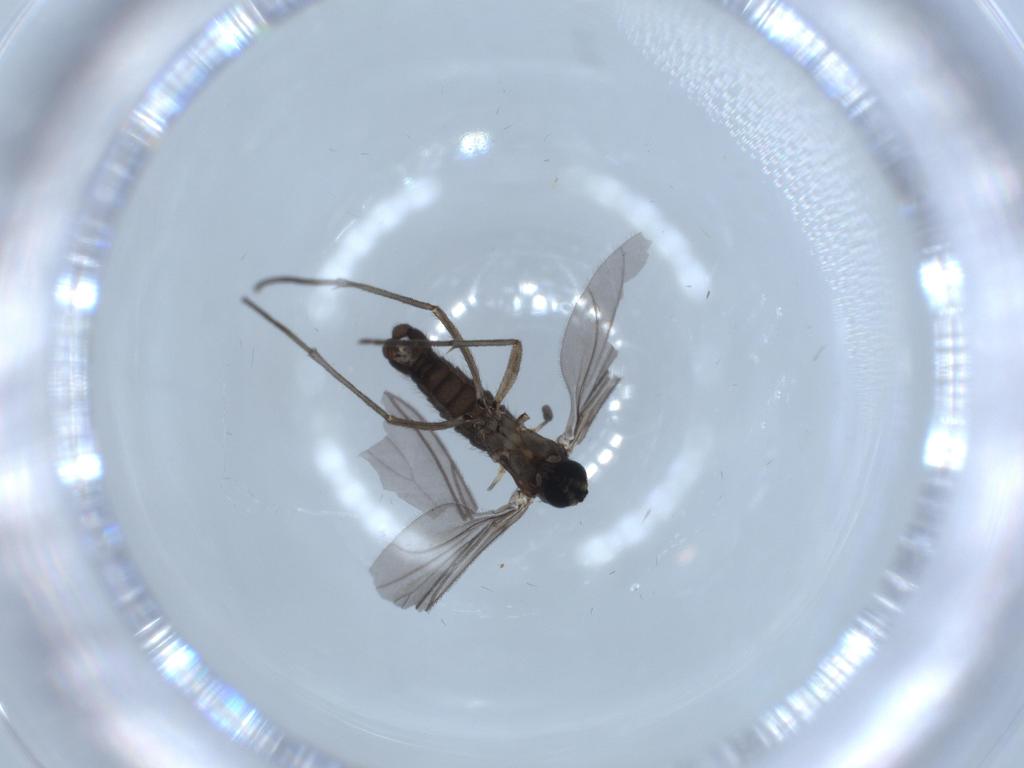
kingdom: Animalia
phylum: Arthropoda
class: Insecta
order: Diptera
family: Sciaridae
